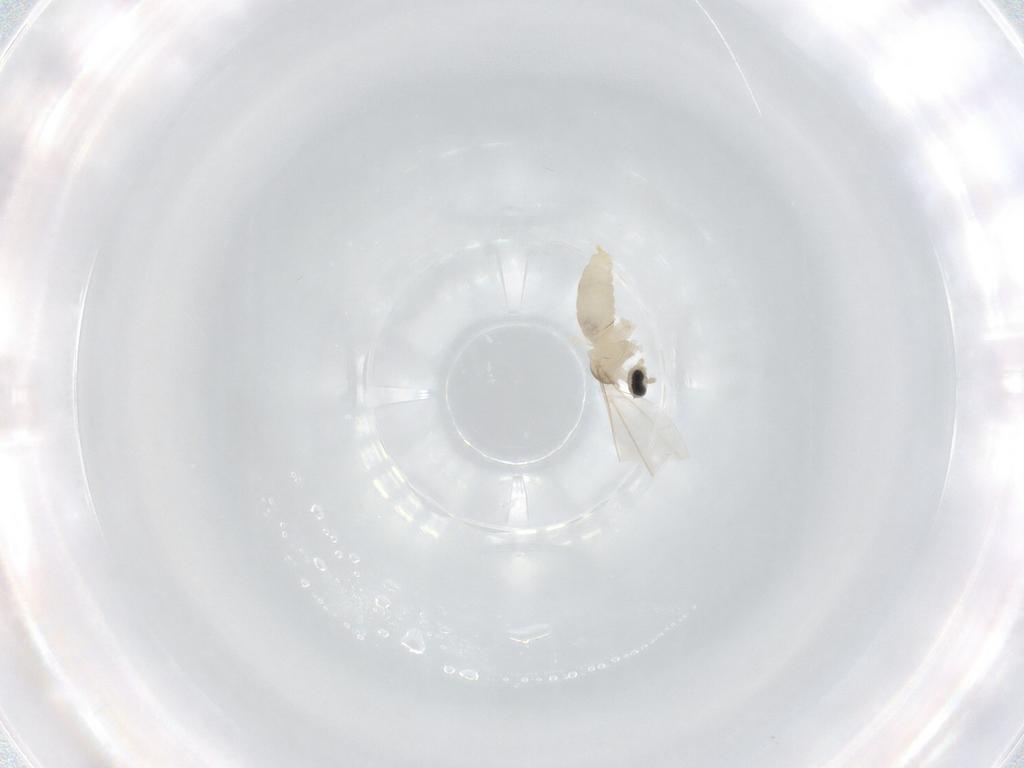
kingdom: Animalia
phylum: Arthropoda
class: Insecta
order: Diptera
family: Cecidomyiidae
